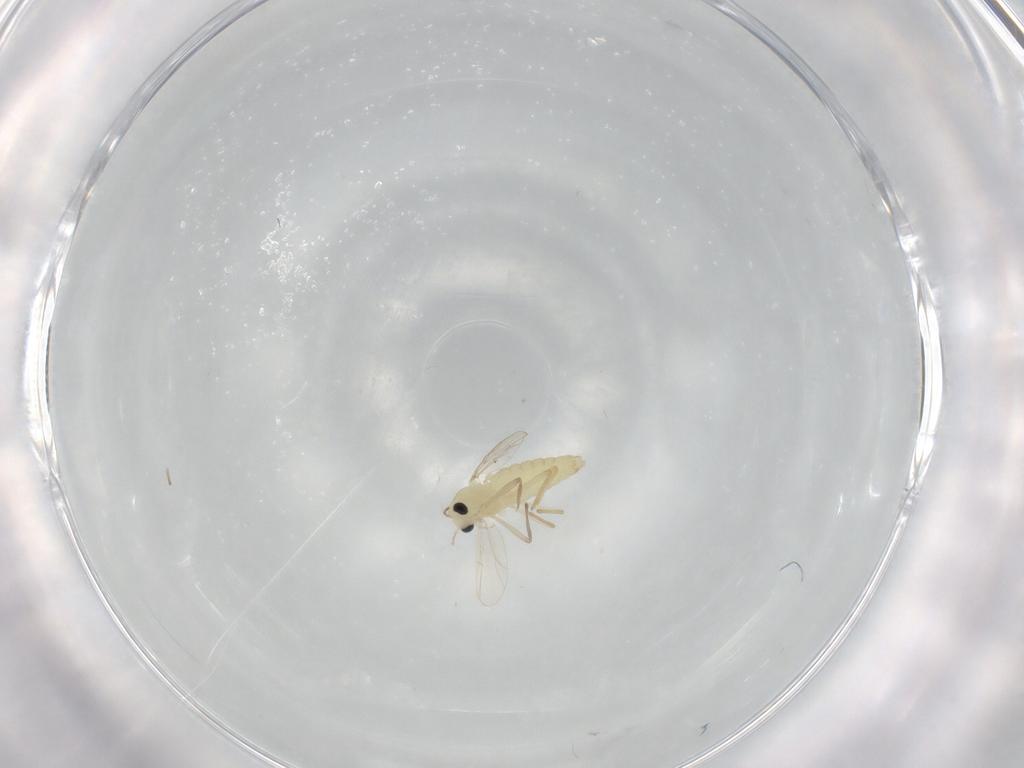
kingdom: Animalia
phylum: Arthropoda
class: Insecta
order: Diptera
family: Chironomidae
